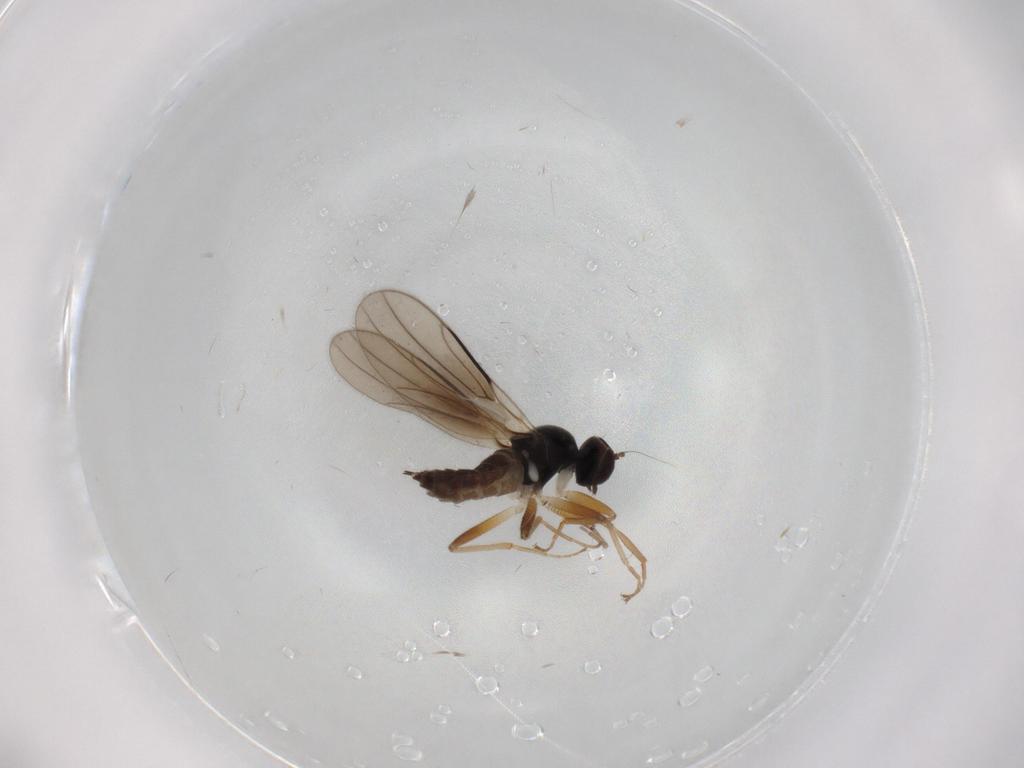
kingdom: Animalia
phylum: Arthropoda
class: Insecta
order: Diptera
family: Hybotidae
